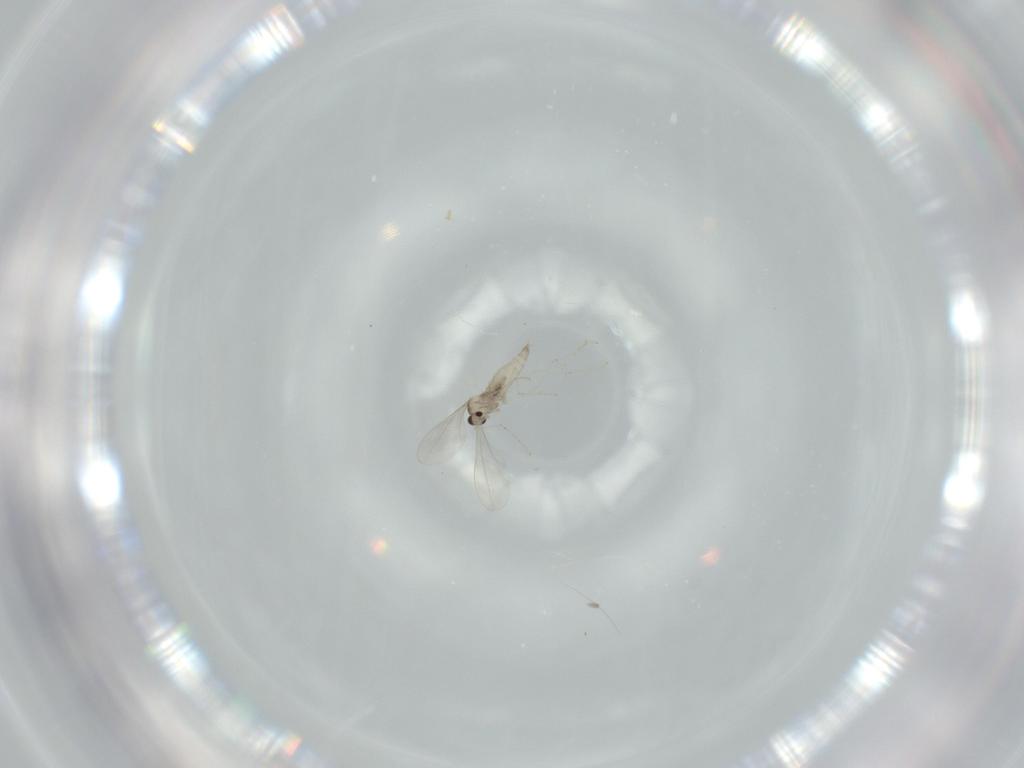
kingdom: Animalia
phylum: Arthropoda
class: Insecta
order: Diptera
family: Cecidomyiidae
